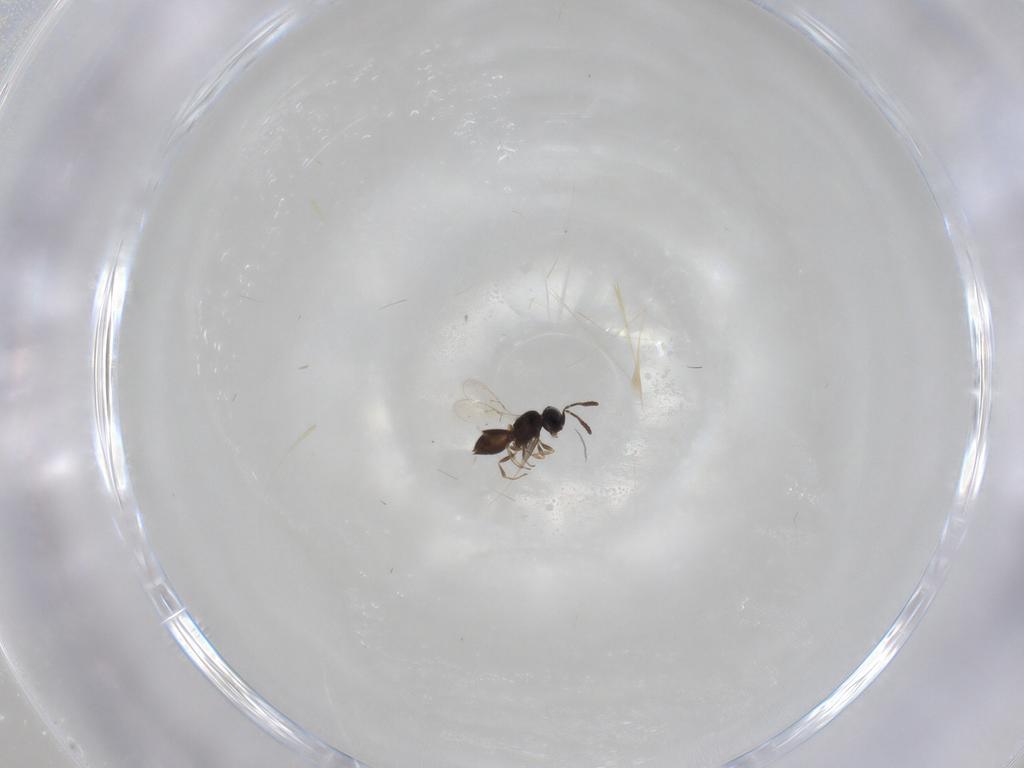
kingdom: Animalia
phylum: Arthropoda
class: Insecta
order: Hymenoptera
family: Scelionidae
